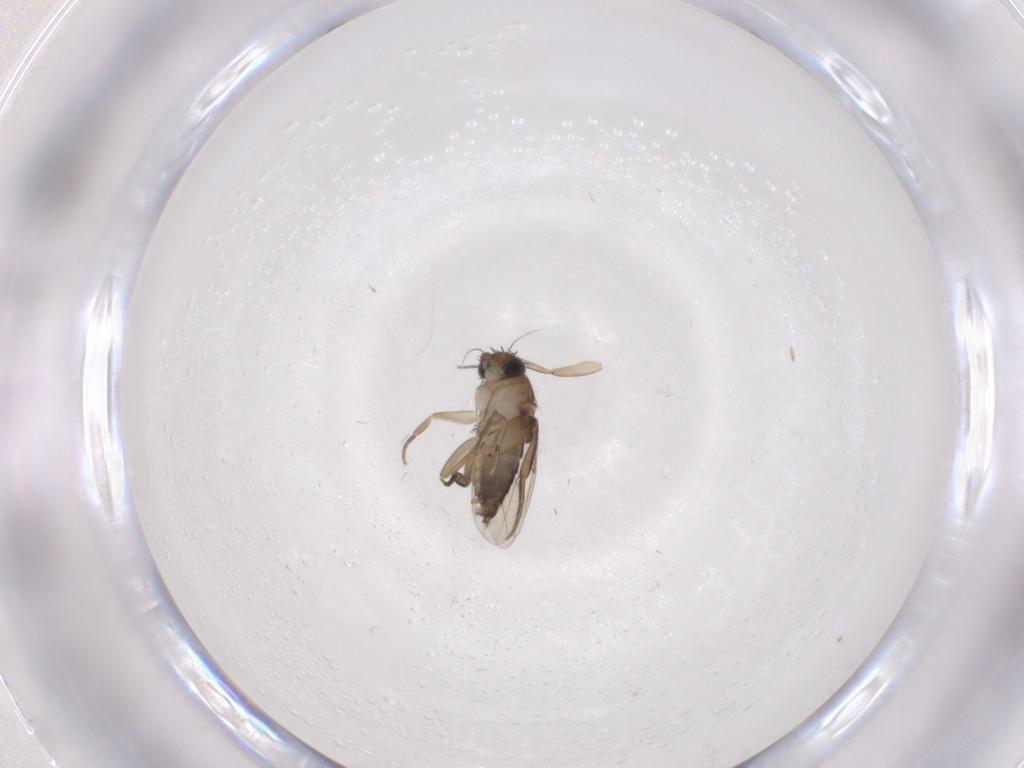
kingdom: Animalia
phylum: Arthropoda
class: Insecta
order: Diptera
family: Phoridae
